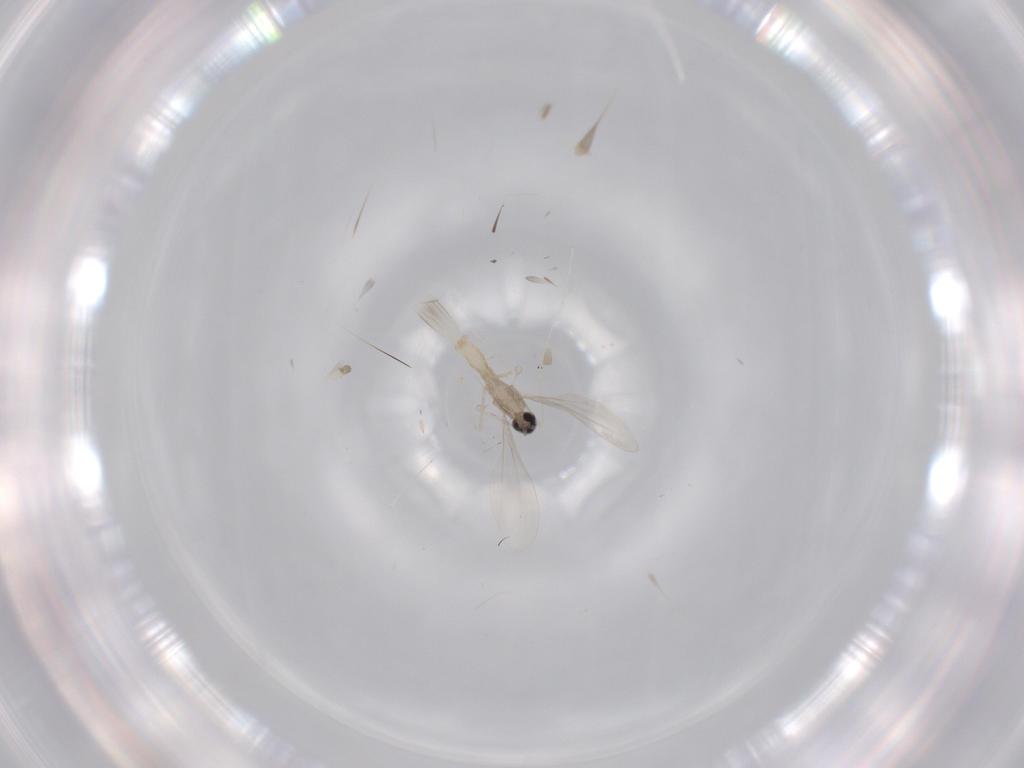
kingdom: Animalia
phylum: Arthropoda
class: Insecta
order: Diptera
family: Cecidomyiidae
